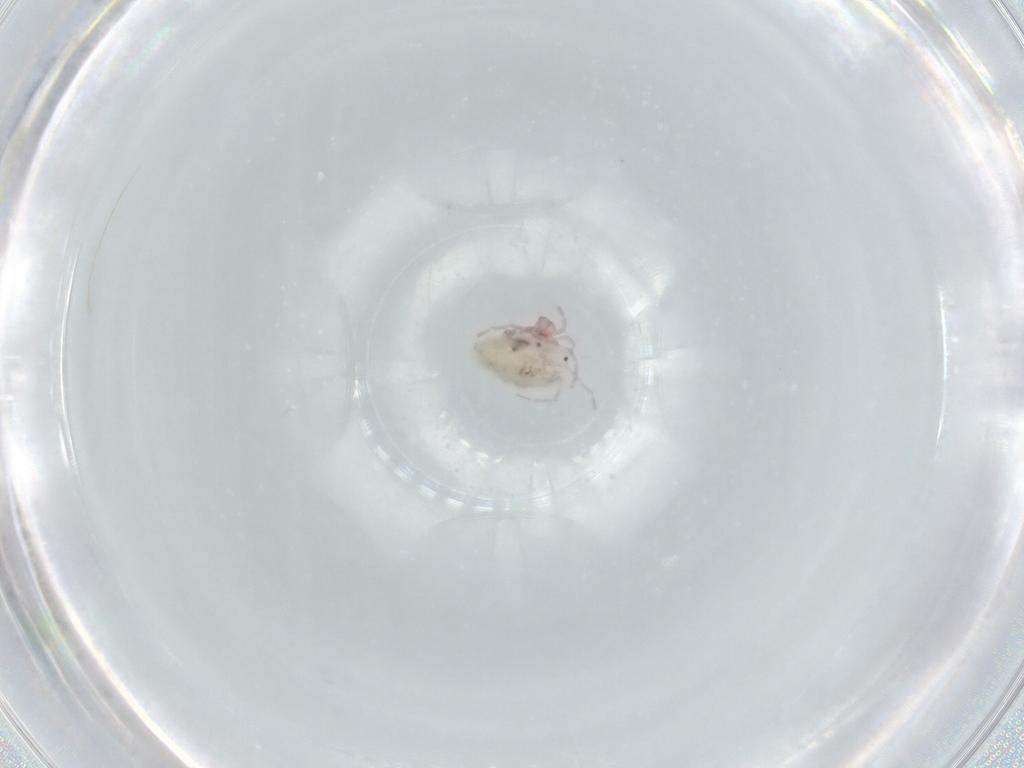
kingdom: Animalia
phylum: Arthropoda
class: Arachnida
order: Trombidiformes
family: Pionidae
